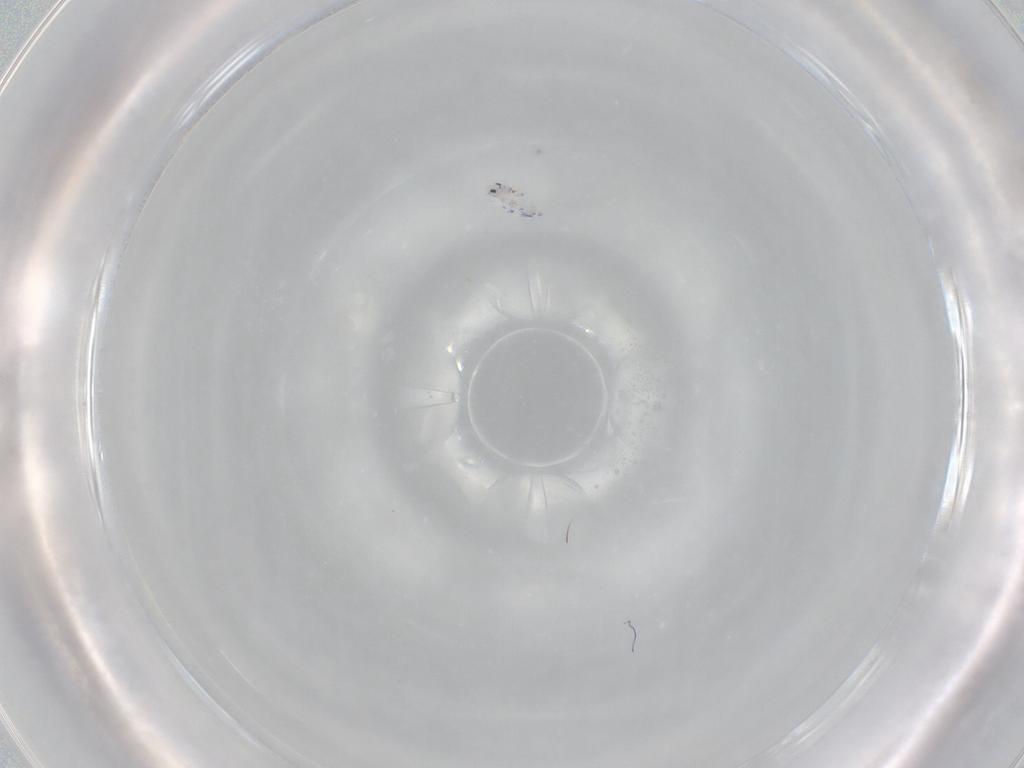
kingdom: Animalia
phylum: Arthropoda
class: Collembola
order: Entomobryomorpha
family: Entomobryidae
